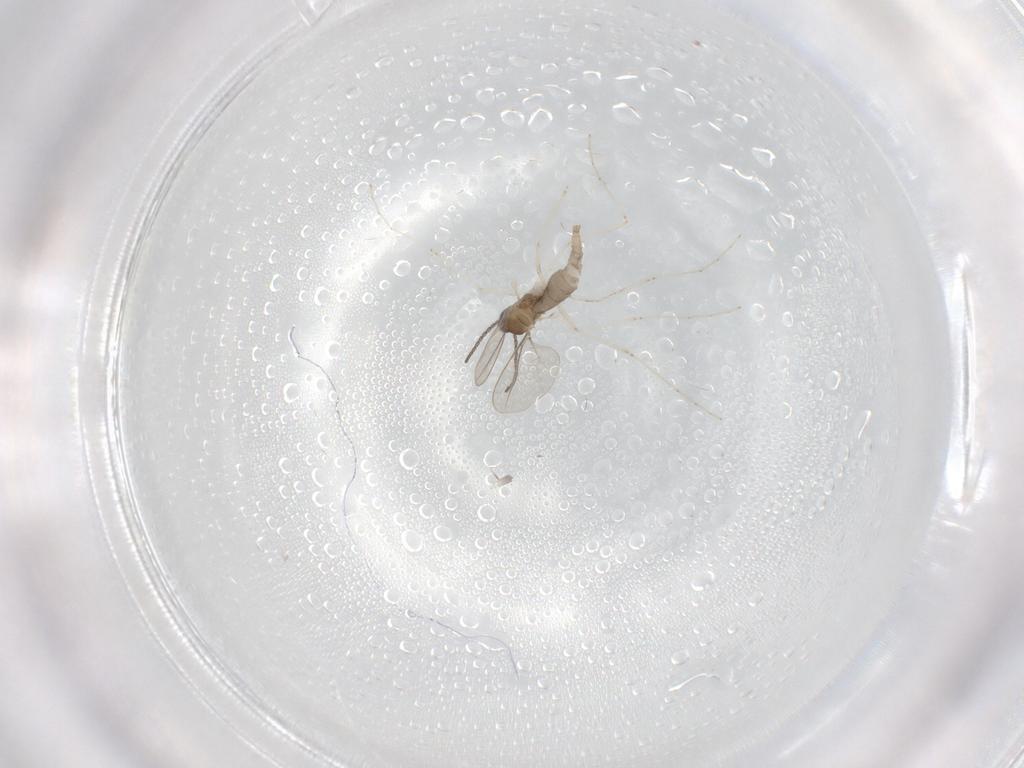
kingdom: Animalia
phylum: Arthropoda
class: Insecta
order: Diptera
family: Cecidomyiidae
